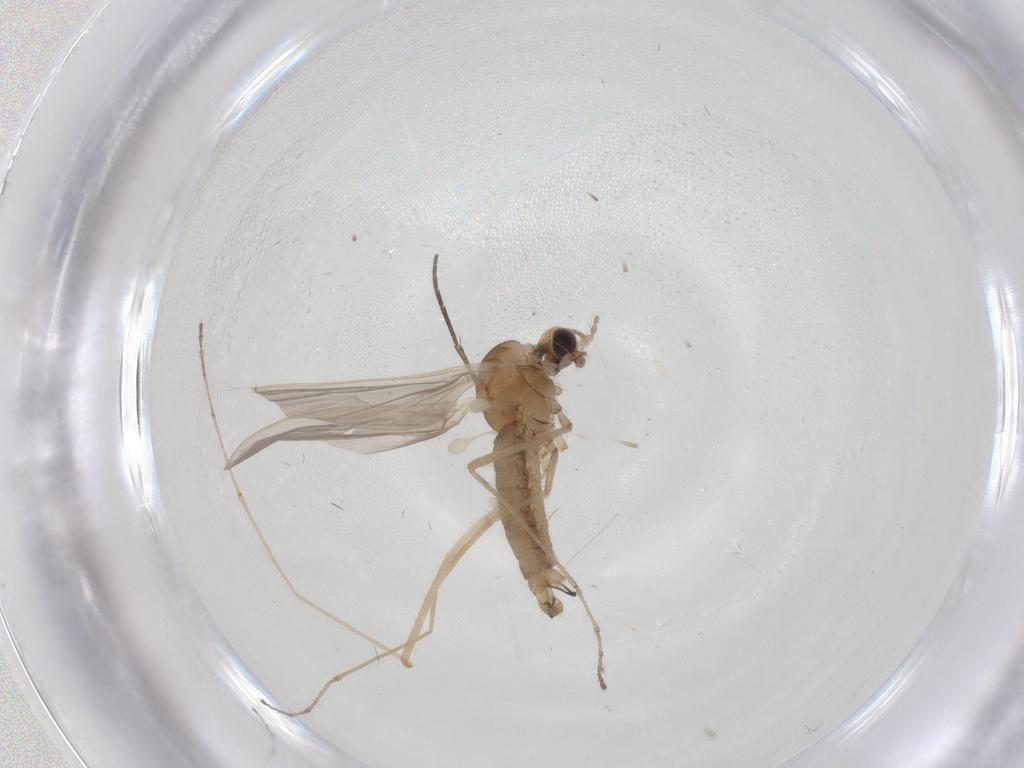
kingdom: Animalia
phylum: Arthropoda
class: Insecta
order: Diptera
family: Limoniidae
